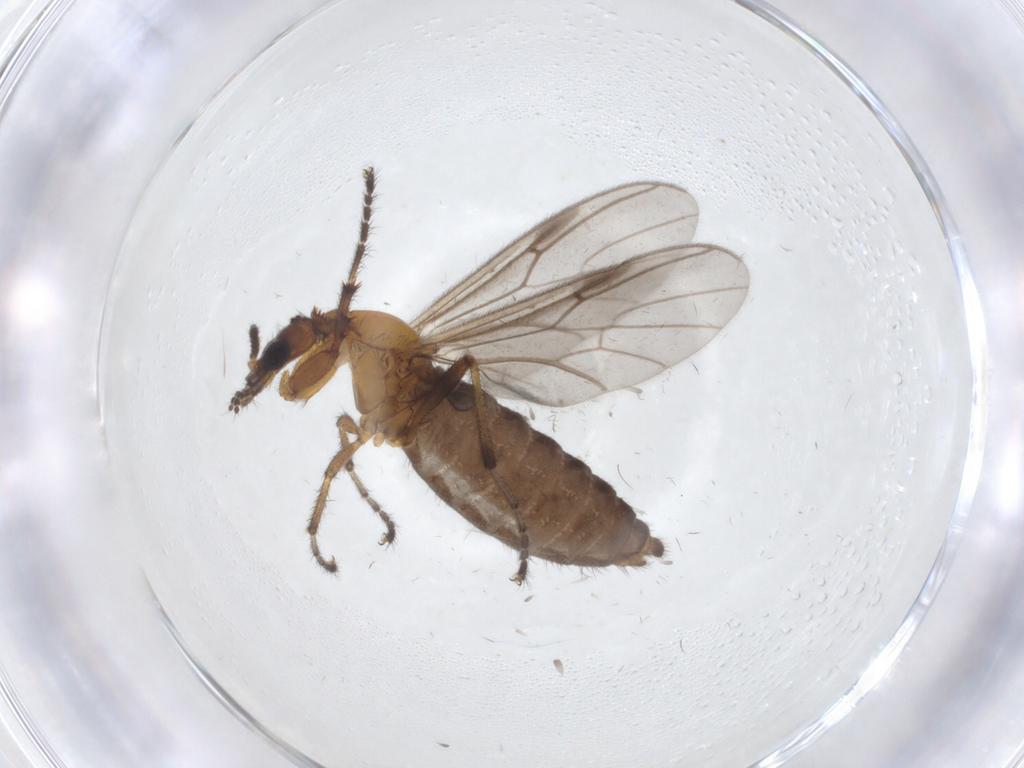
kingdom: Animalia
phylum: Arthropoda
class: Insecta
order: Diptera
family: Bibionidae
